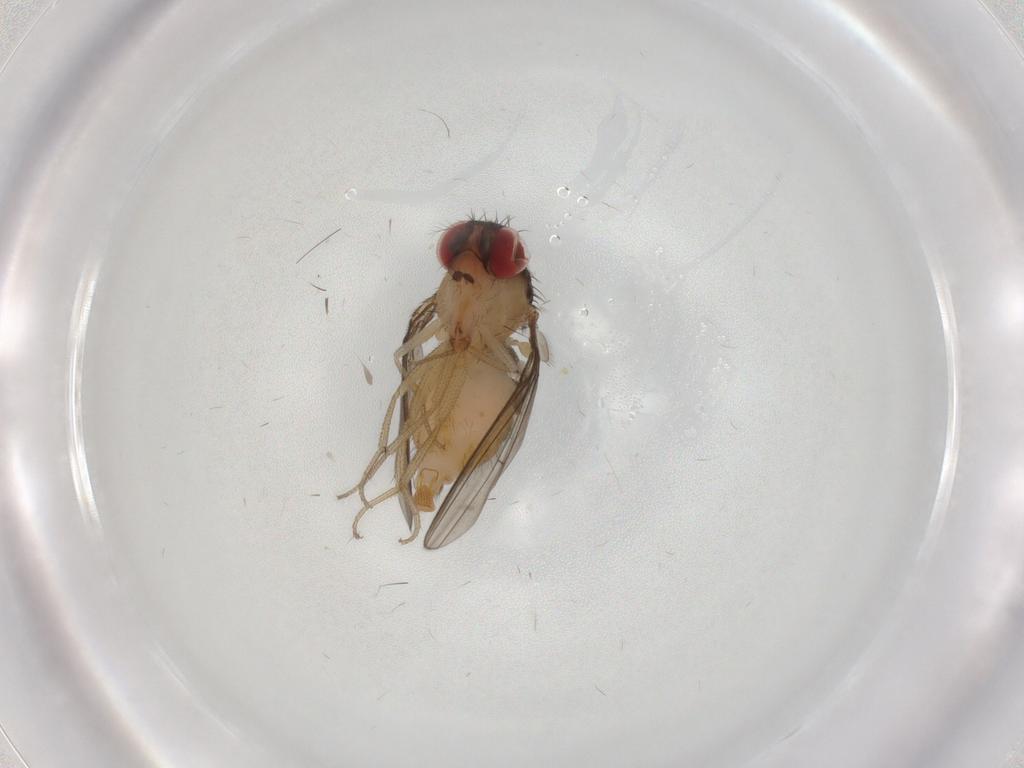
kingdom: Animalia
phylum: Arthropoda
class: Insecta
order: Diptera
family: Drosophilidae
